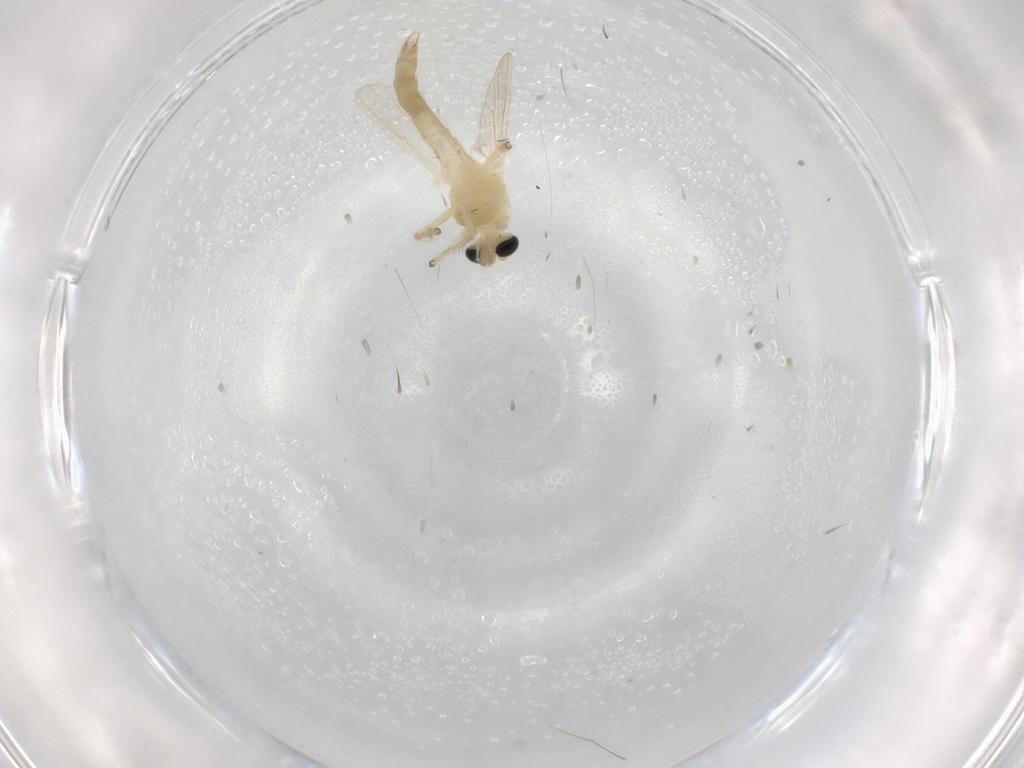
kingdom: Animalia
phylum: Arthropoda
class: Insecta
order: Diptera
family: Chironomidae
